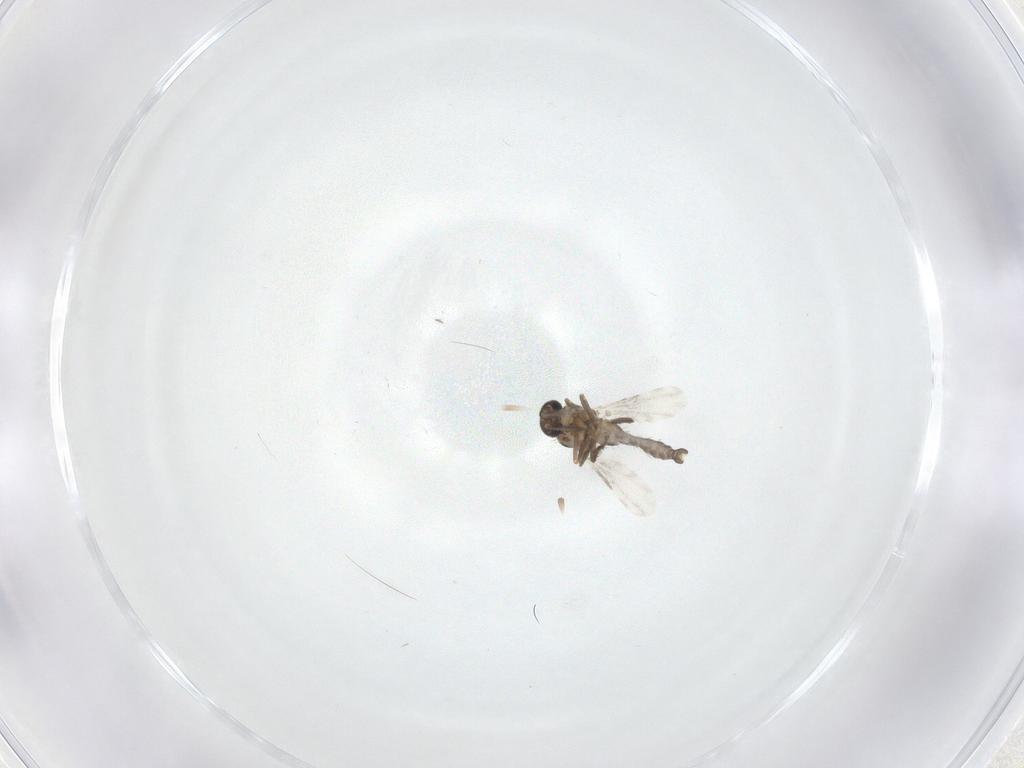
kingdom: Animalia
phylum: Arthropoda
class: Insecta
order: Diptera
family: Ceratopogonidae
